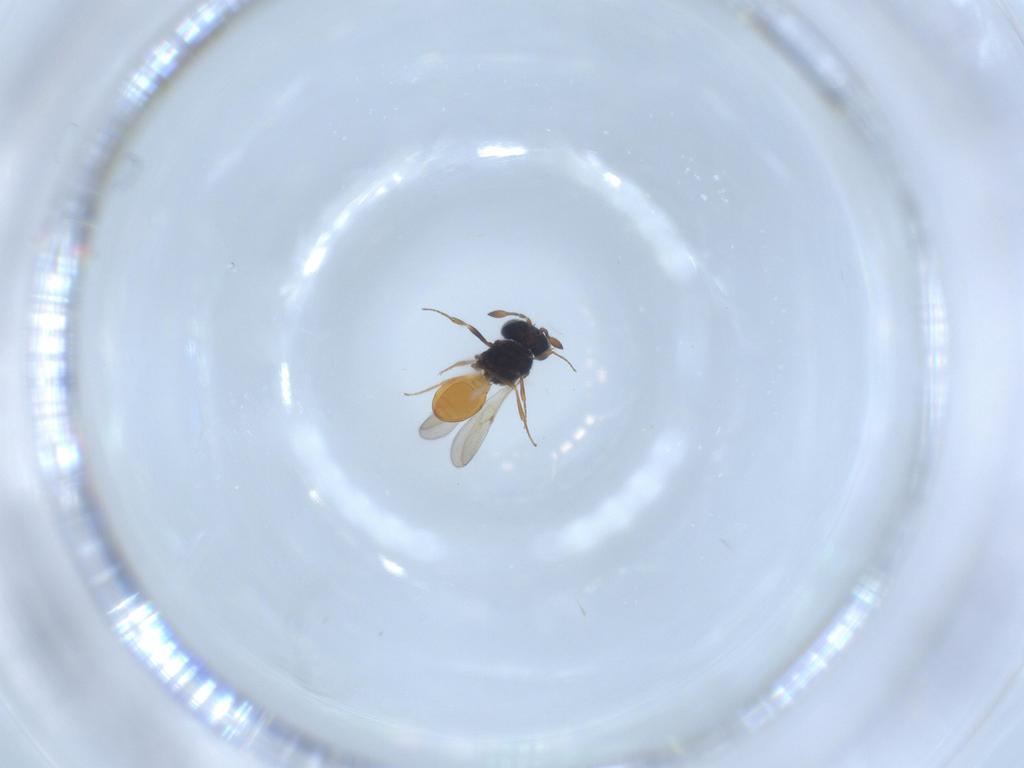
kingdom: Animalia
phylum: Arthropoda
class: Insecta
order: Hymenoptera
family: Scelionidae
